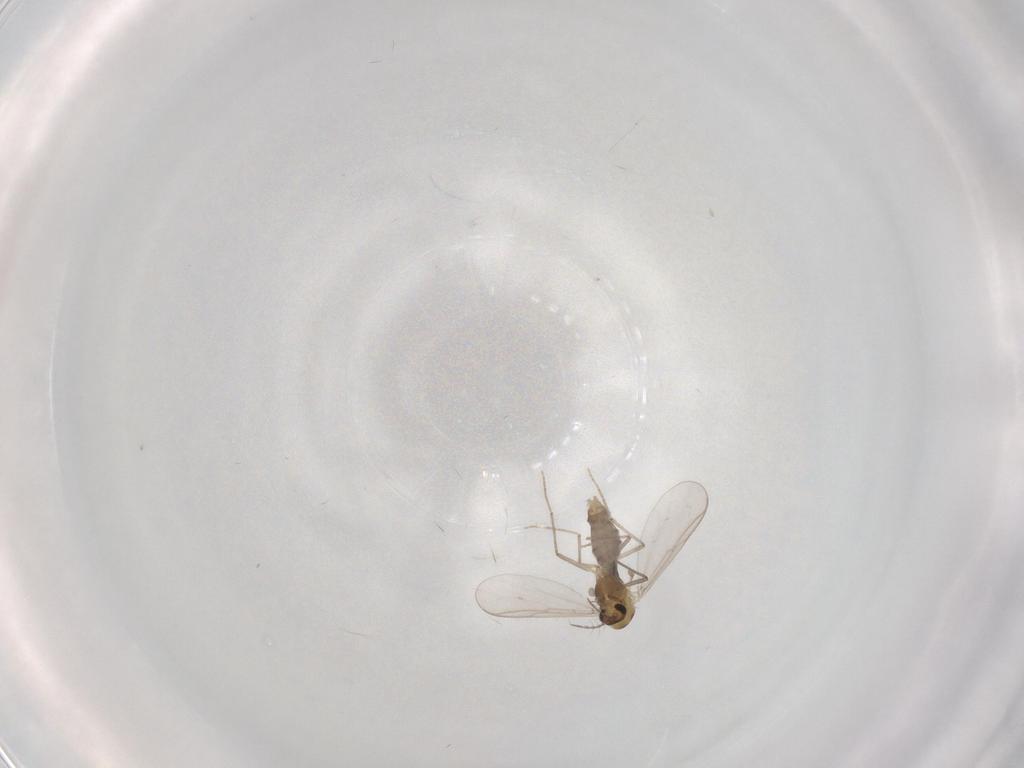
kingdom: Animalia
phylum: Arthropoda
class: Insecta
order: Diptera
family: Chironomidae
